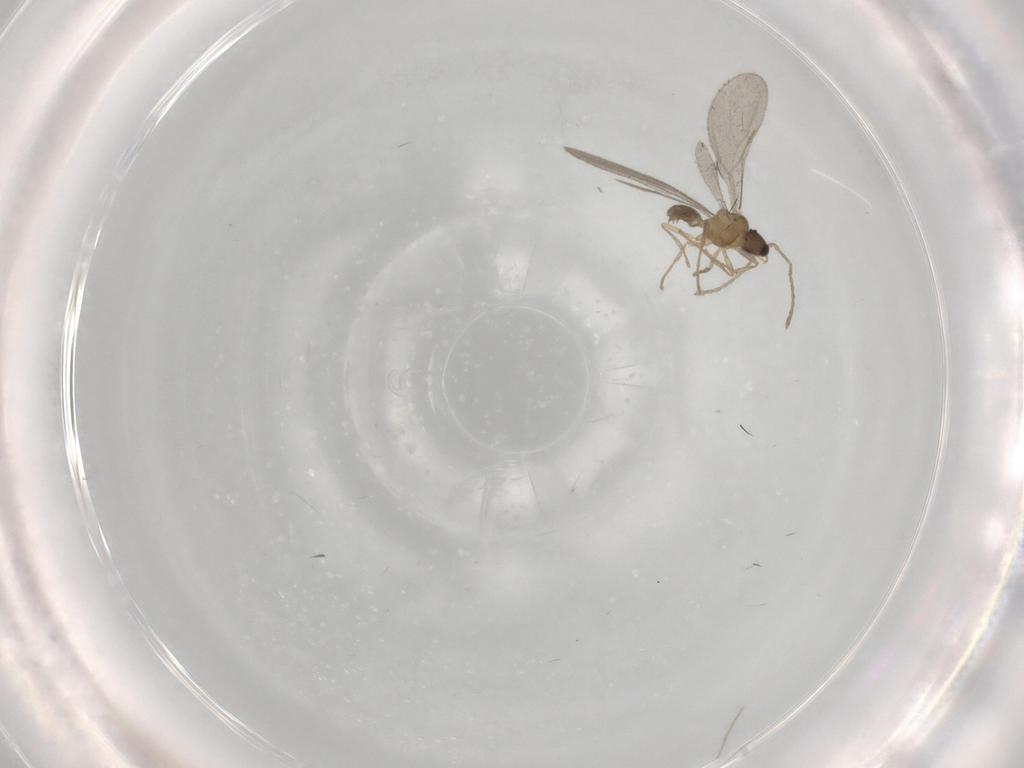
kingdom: Animalia
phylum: Arthropoda
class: Insecta
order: Hymenoptera
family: Formicidae
